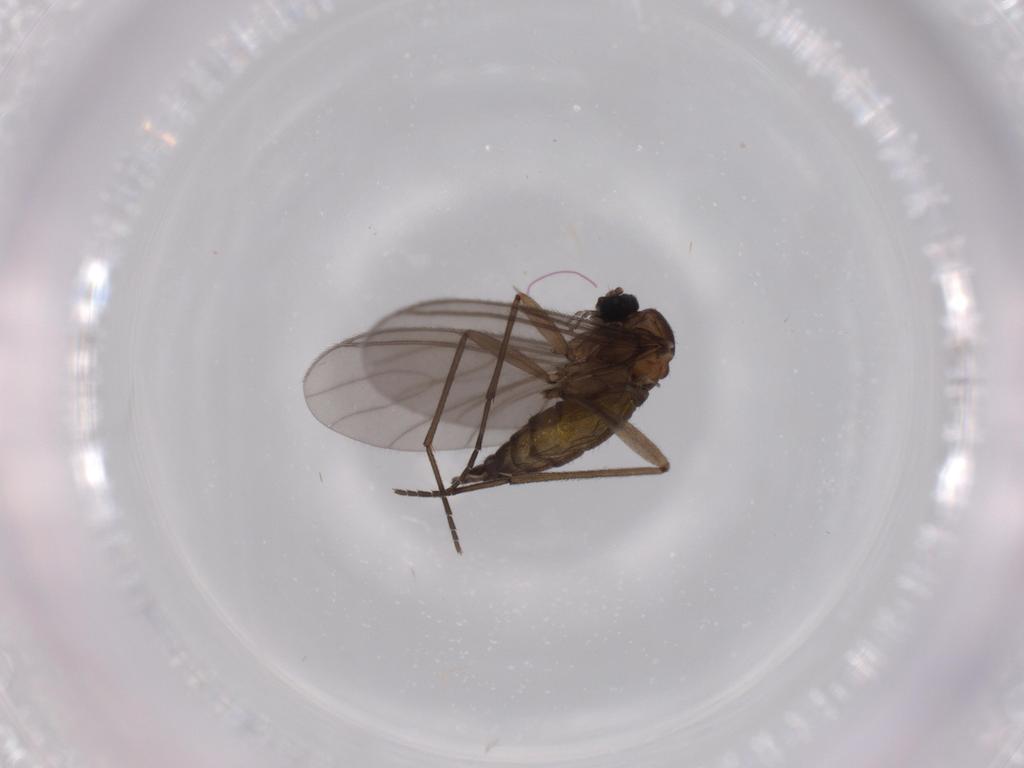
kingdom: Animalia
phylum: Arthropoda
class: Insecta
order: Diptera
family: Sciaridae
